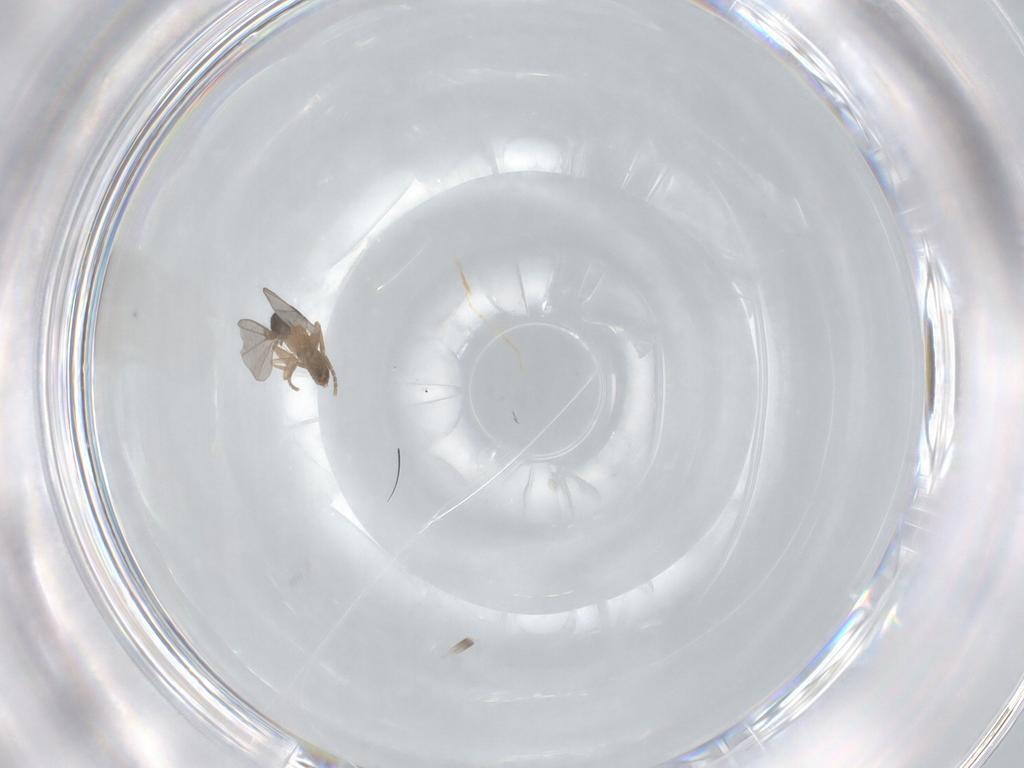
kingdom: Animalia
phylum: Arthropoda
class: Insecta
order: Diptera
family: Phoridae
